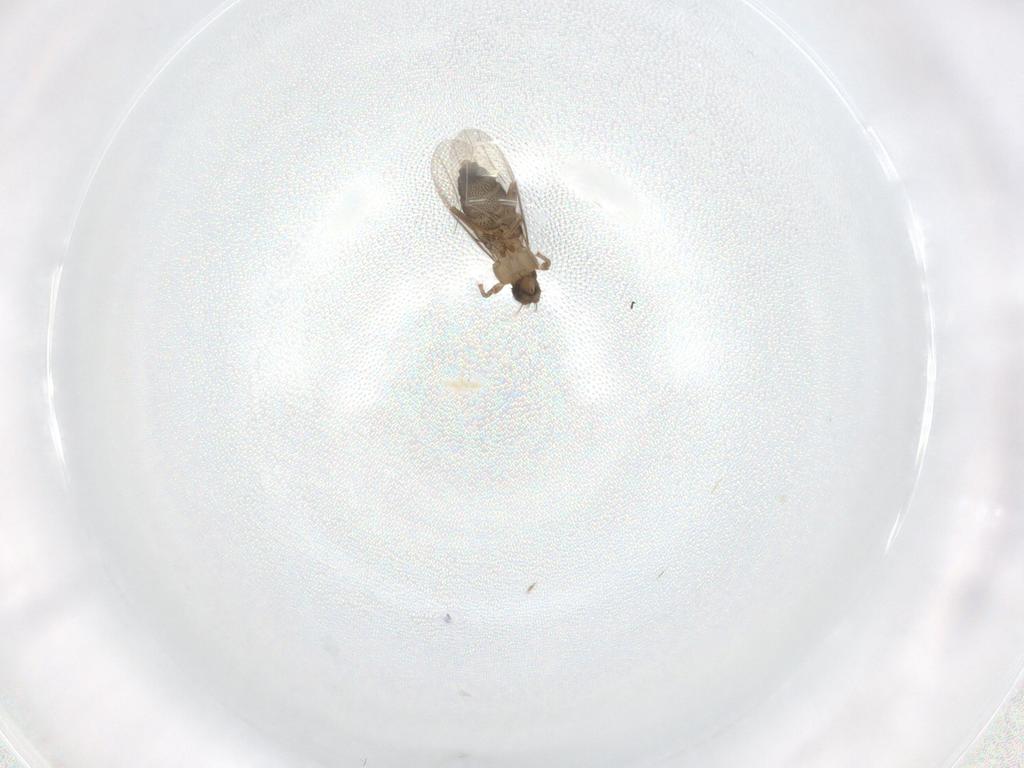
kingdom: Animalia
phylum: Arthropoda
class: Insecta
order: Diptera
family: Phoridae
